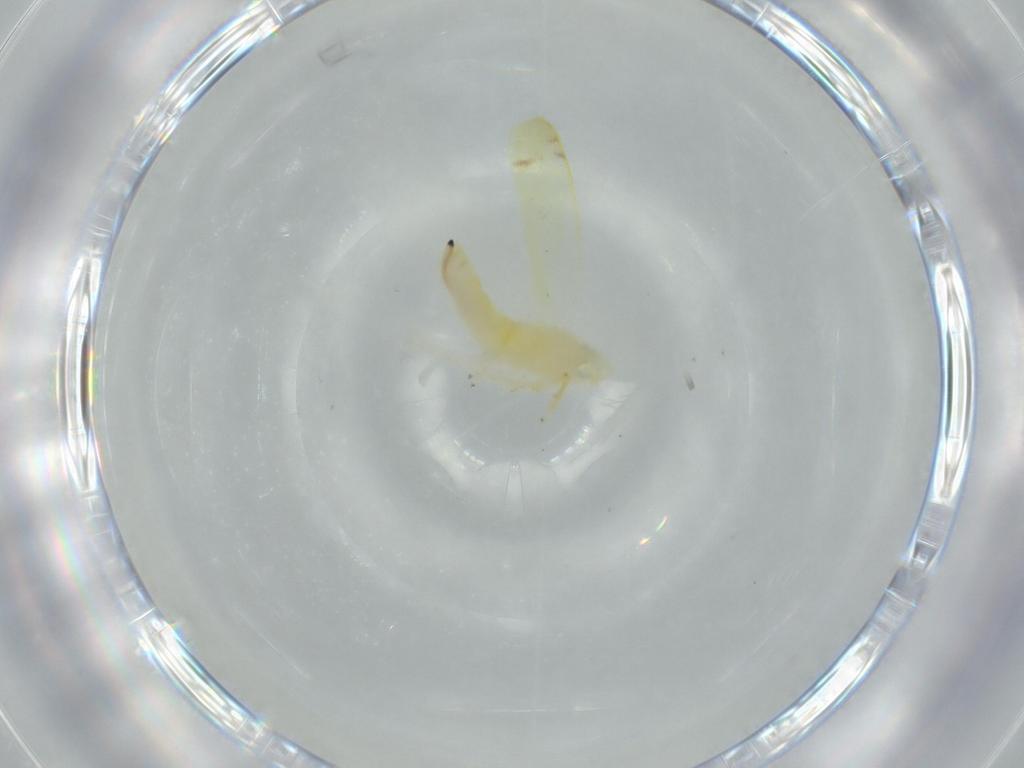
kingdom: Animalia
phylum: Arthropoda
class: Insecta
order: Hemiptera
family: Cicadellidae
